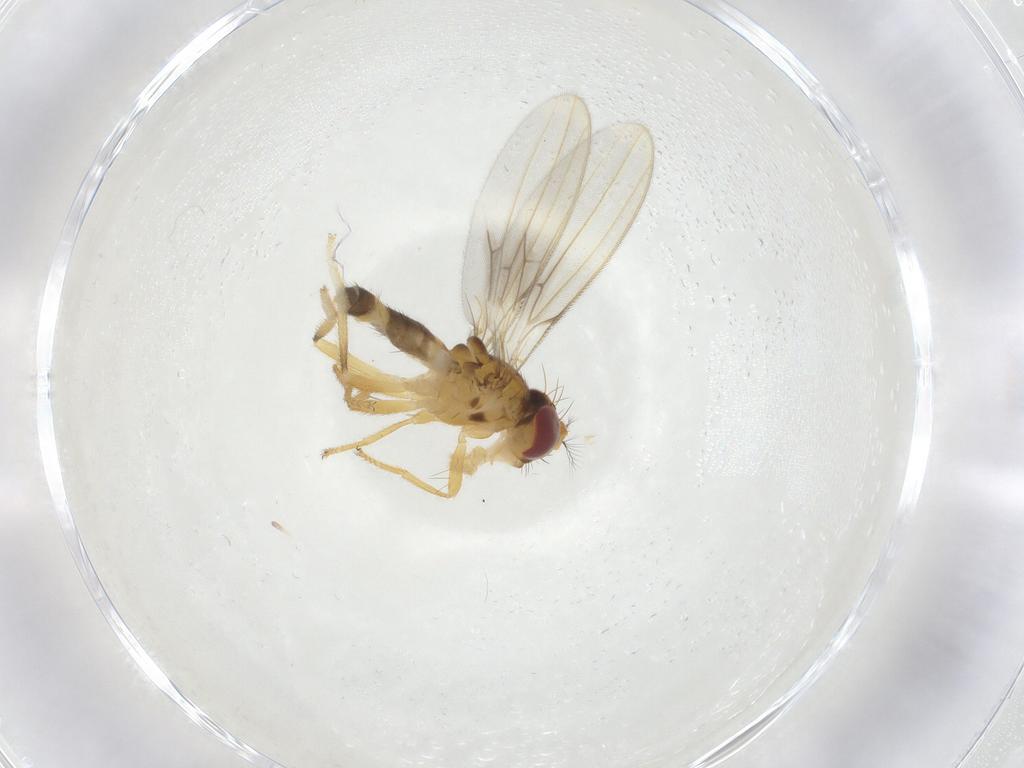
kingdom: Animalia
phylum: Arthropoda
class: Insecta
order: Diptera
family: Periscelididae
